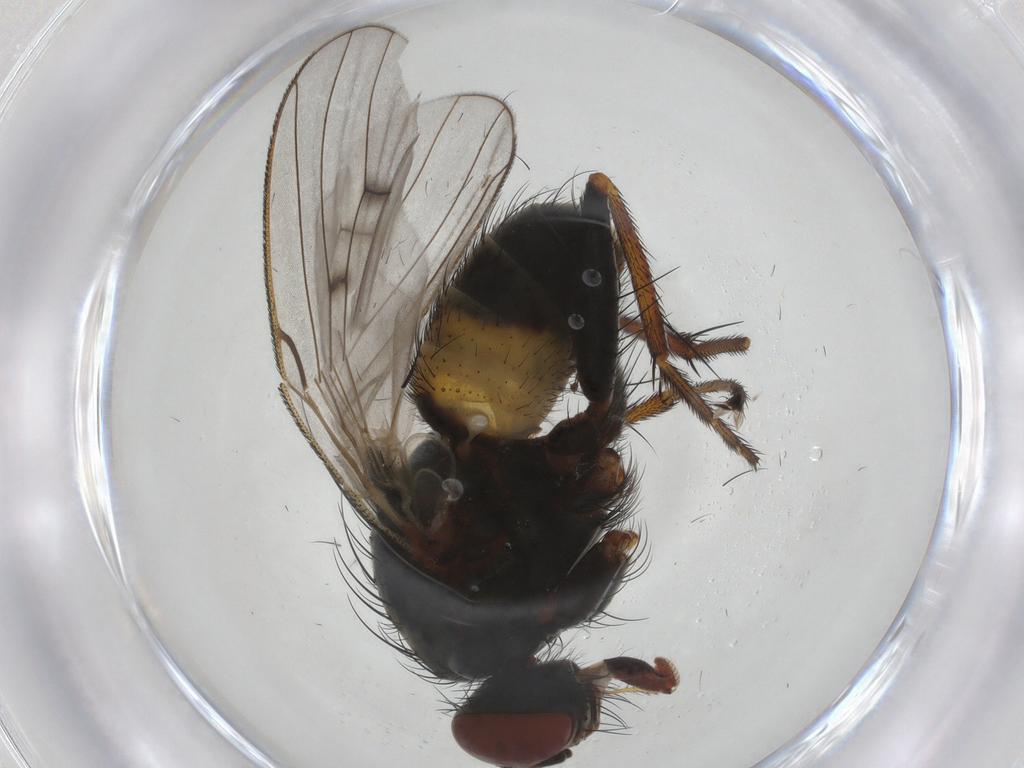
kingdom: Animalia
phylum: Arthropoda
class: Insecta
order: Diptera
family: Muscidae
